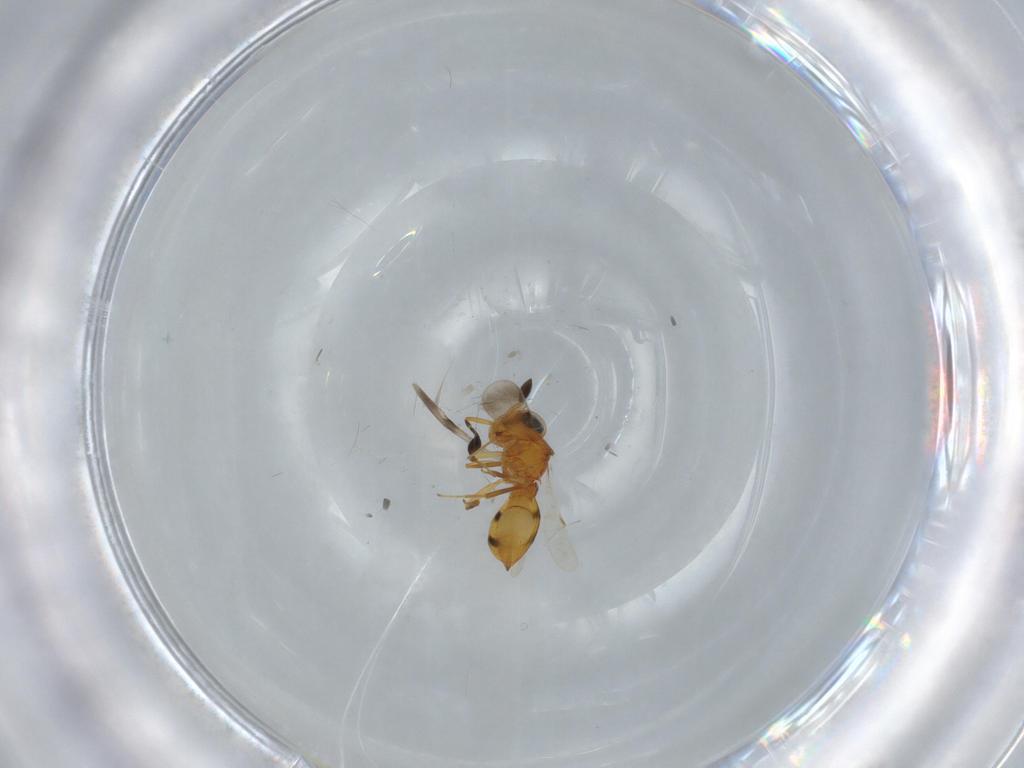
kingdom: Animalia
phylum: Arthropoda
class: Insecta
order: Hymenoptera
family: Scelionidae
